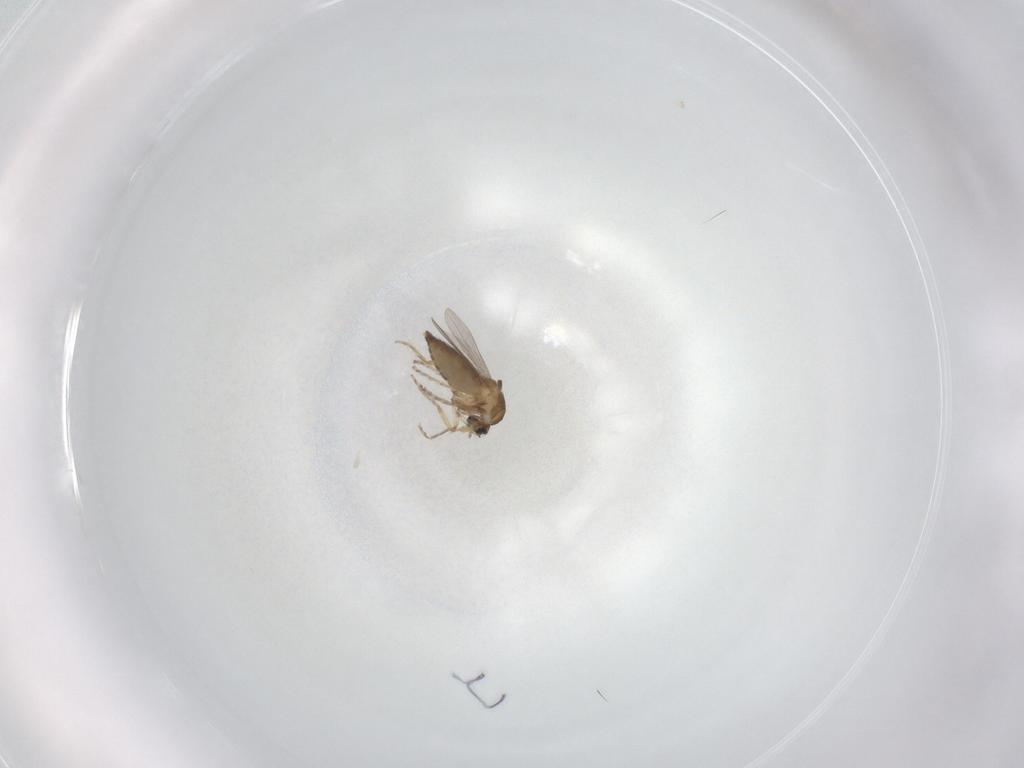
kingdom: Animalia
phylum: Arthropoda
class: Insecta
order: Diptera
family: Ceratopogonidae
